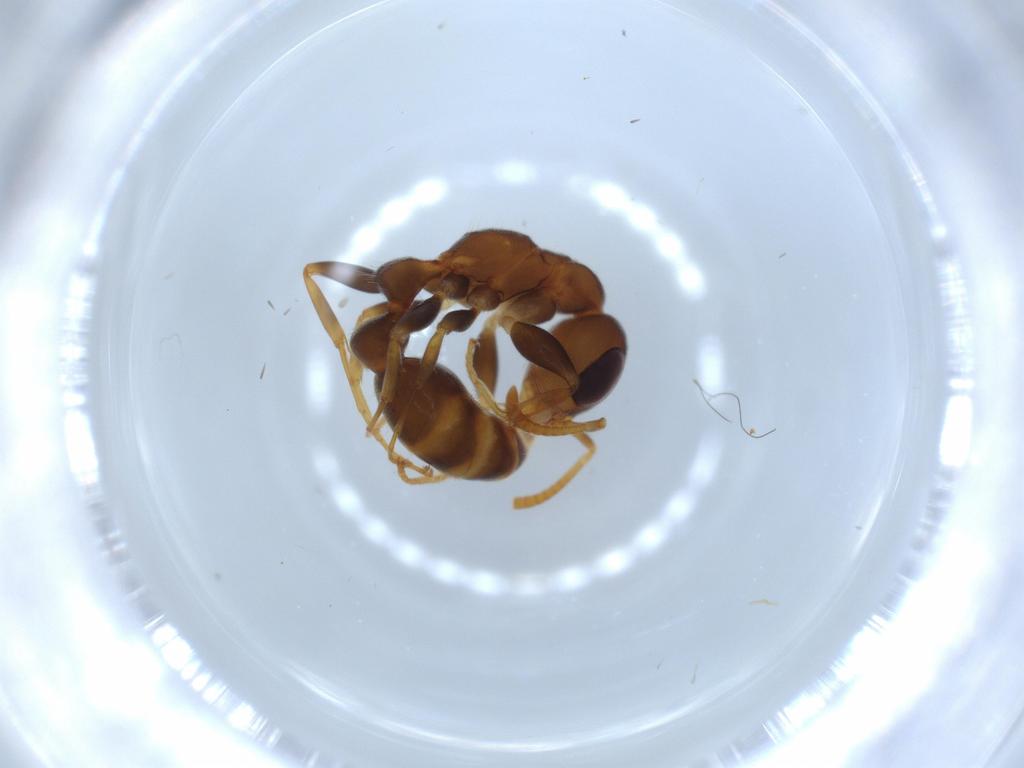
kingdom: Animalia
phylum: Arthropoda
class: Insecta
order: Hymenoptera
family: Formicidae
